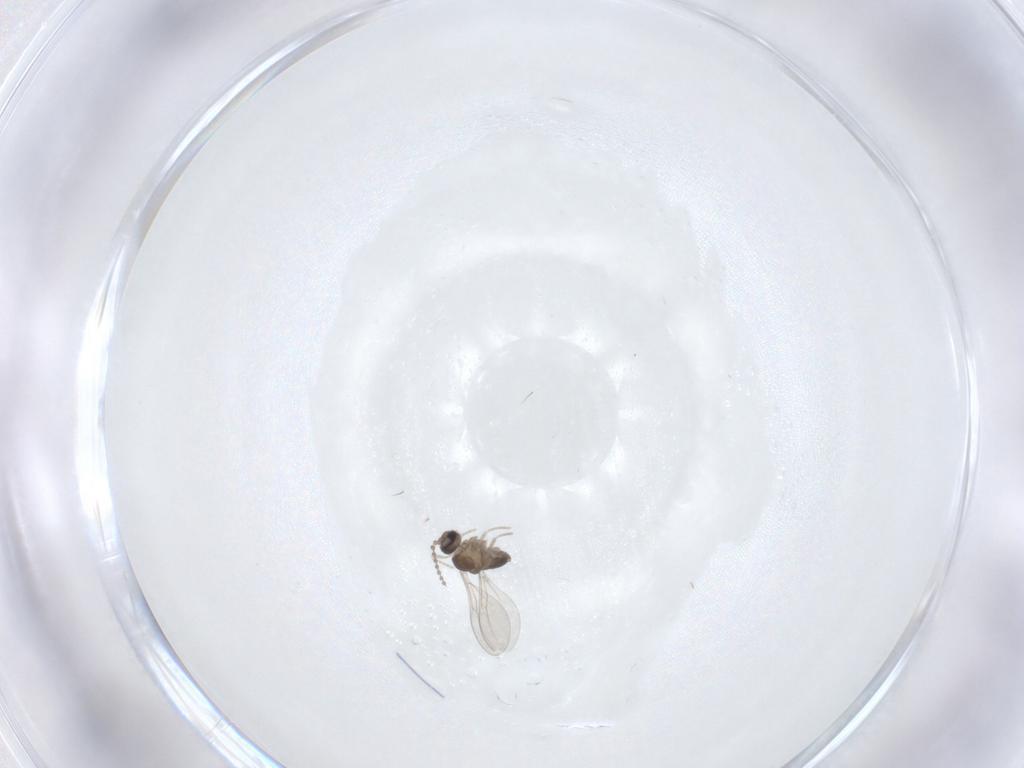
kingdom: Animalia
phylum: Arthropoda
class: Insecta
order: Diptera
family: Cecidomyiidae
